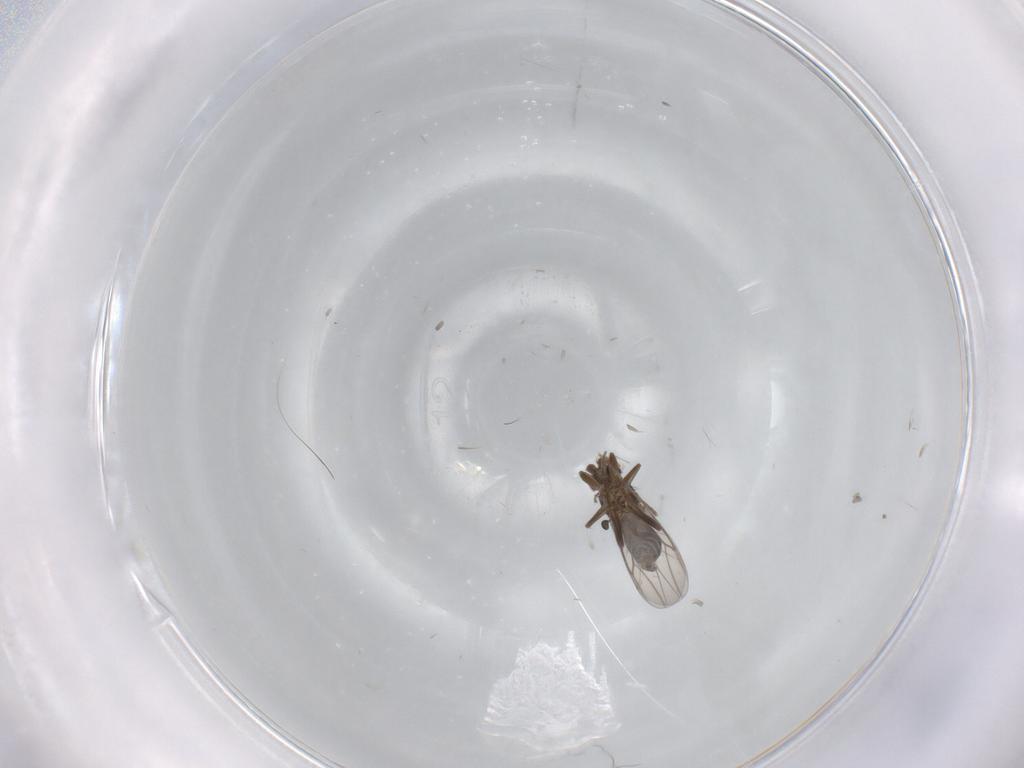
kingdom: Animalia
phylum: Arthropoda
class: Insecta
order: Diptera
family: Phoridae
